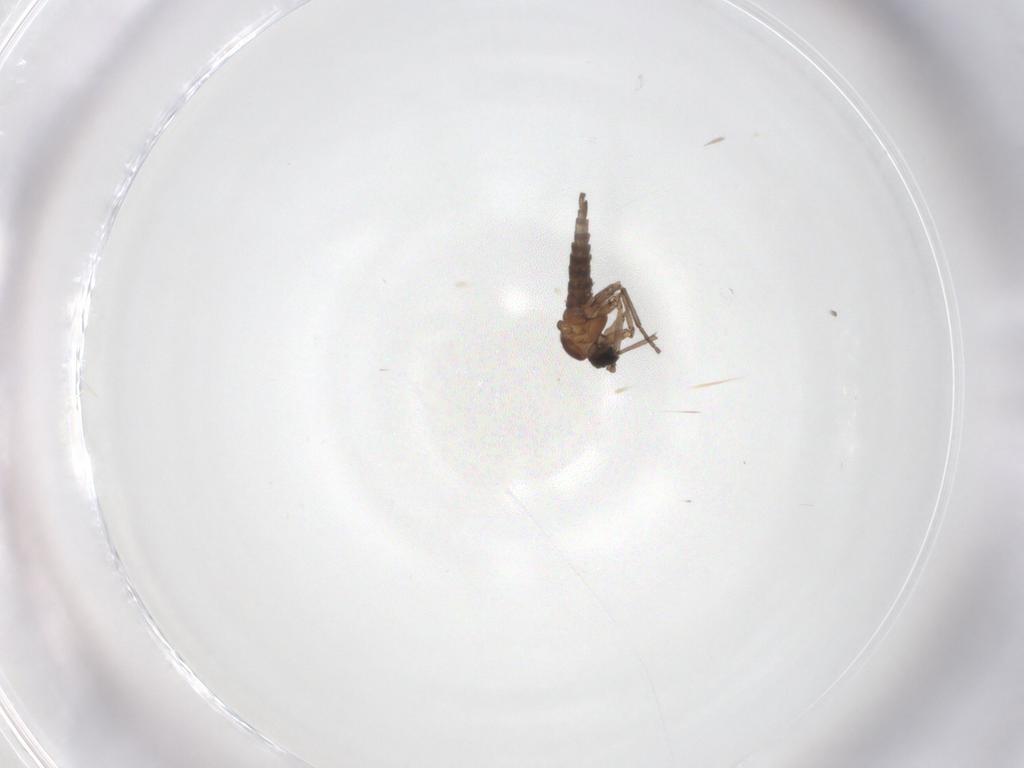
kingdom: Animalia
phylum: Arthropoda
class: Insecta
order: Diptera
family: Sciaridae
